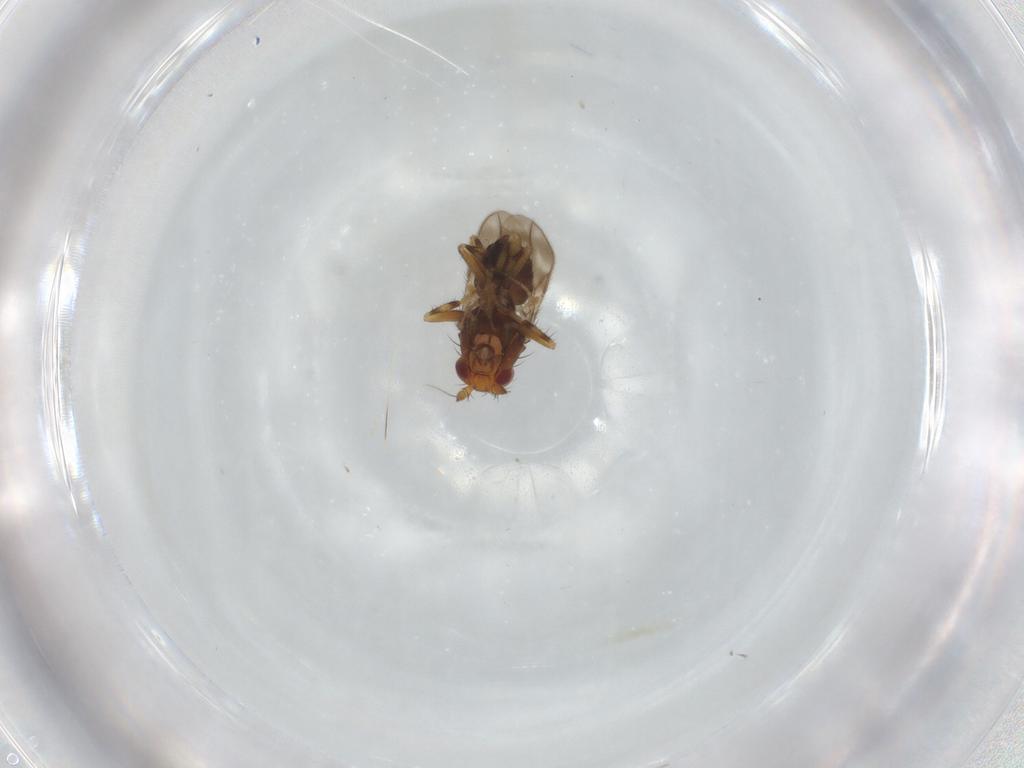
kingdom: Animalia
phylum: Arthropoda
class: Insecta
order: Diptera
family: Sphaeroceridae
